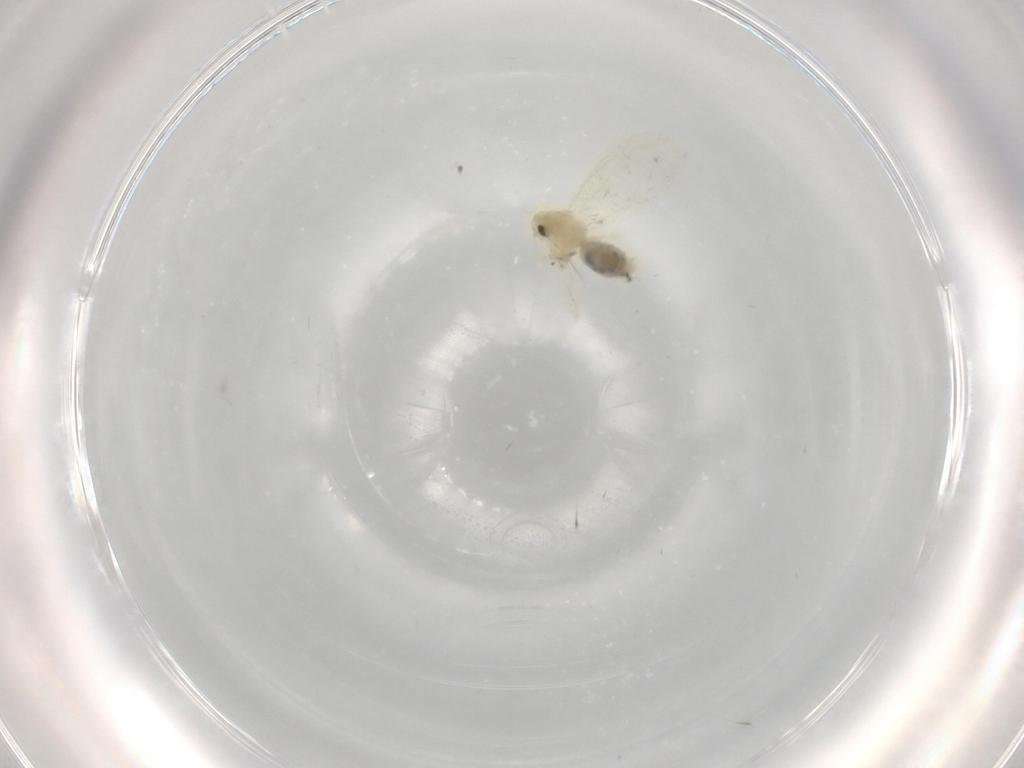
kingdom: Animalia
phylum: Arthropoda
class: Insecta
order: Hemiptera
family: Aleyrodidae
